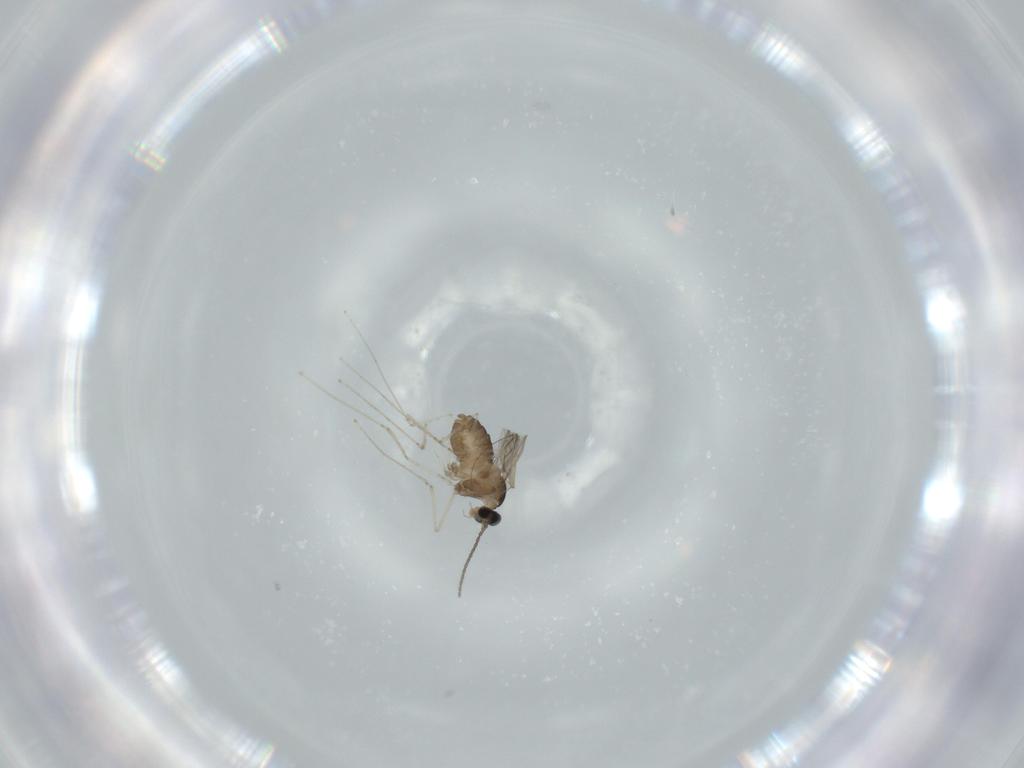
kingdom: Animalia
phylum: Arthropoda
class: Insecta
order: Diptera
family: Cecidomyiidae
